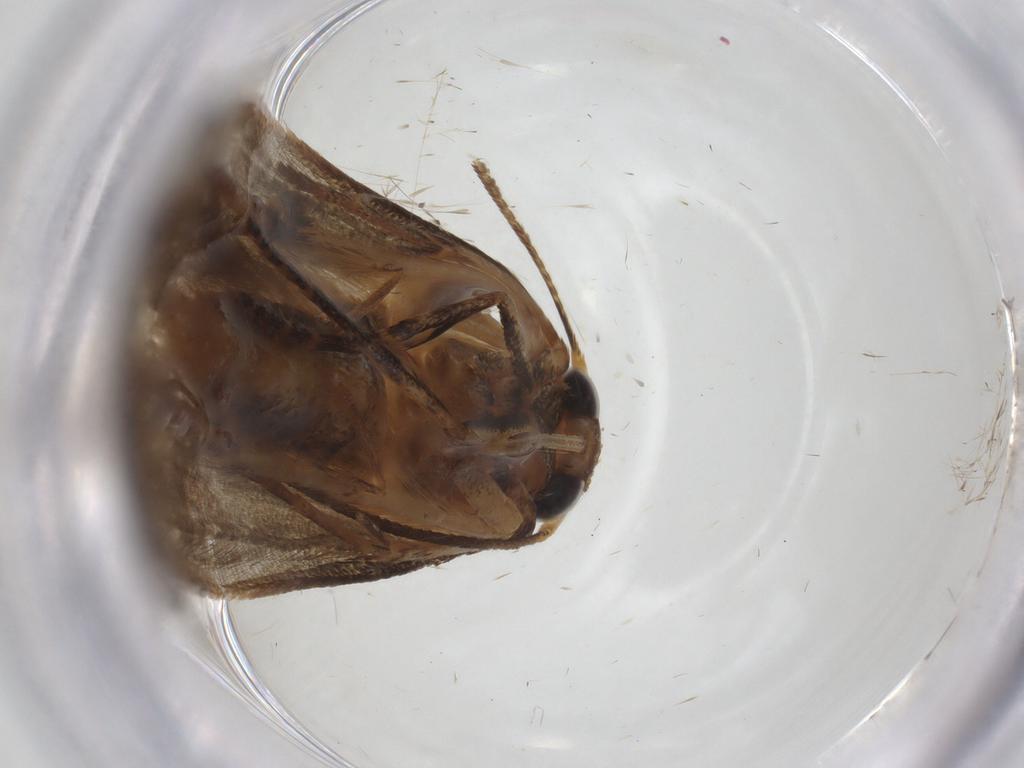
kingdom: Animalia
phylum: Arthropoda
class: Insecta
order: Lepidoptera
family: Blastobasidae
